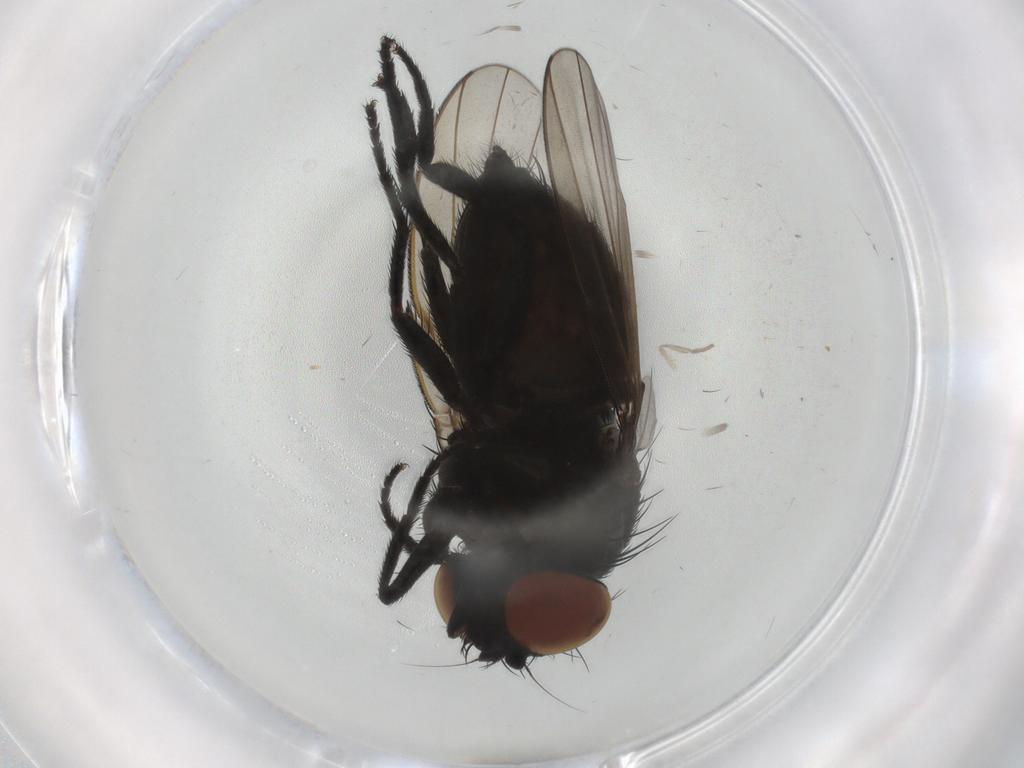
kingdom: Animalia
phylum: Arthropoda
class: Insecta
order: Diptera
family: Milichiidae
